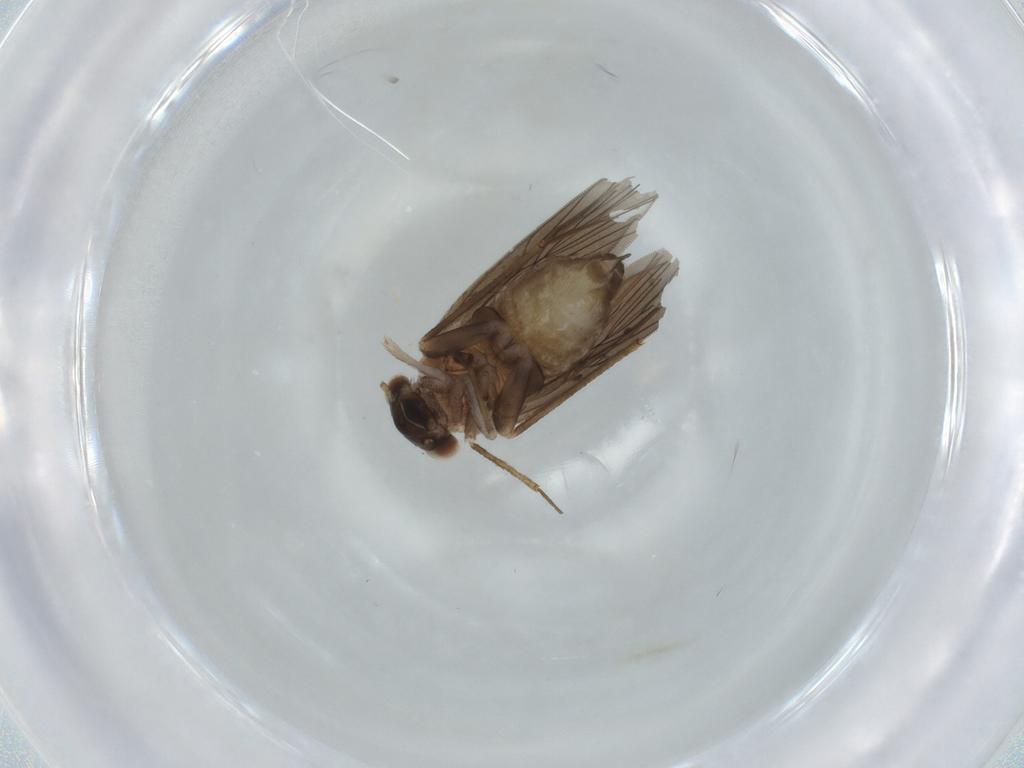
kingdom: Animalia
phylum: Arthropoda
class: Insecta
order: Psocodea
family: Lepidopsocidae
